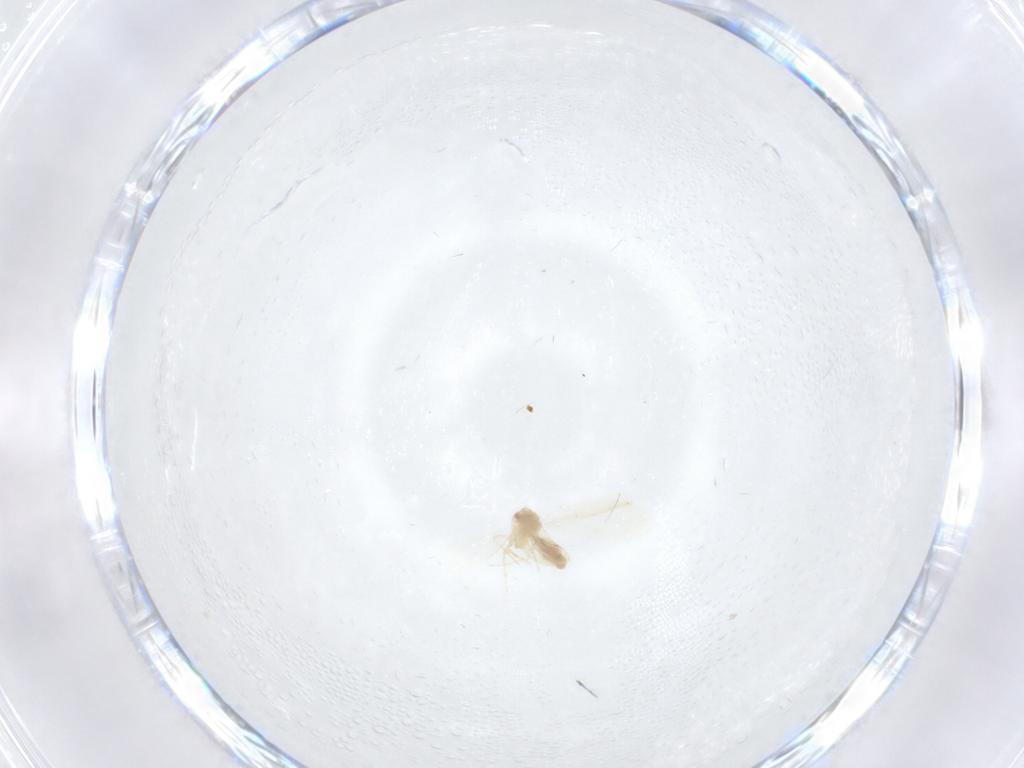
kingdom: Animalia
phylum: Arthropoda
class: Insecta
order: Hemiptera
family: Aleyrodidae
